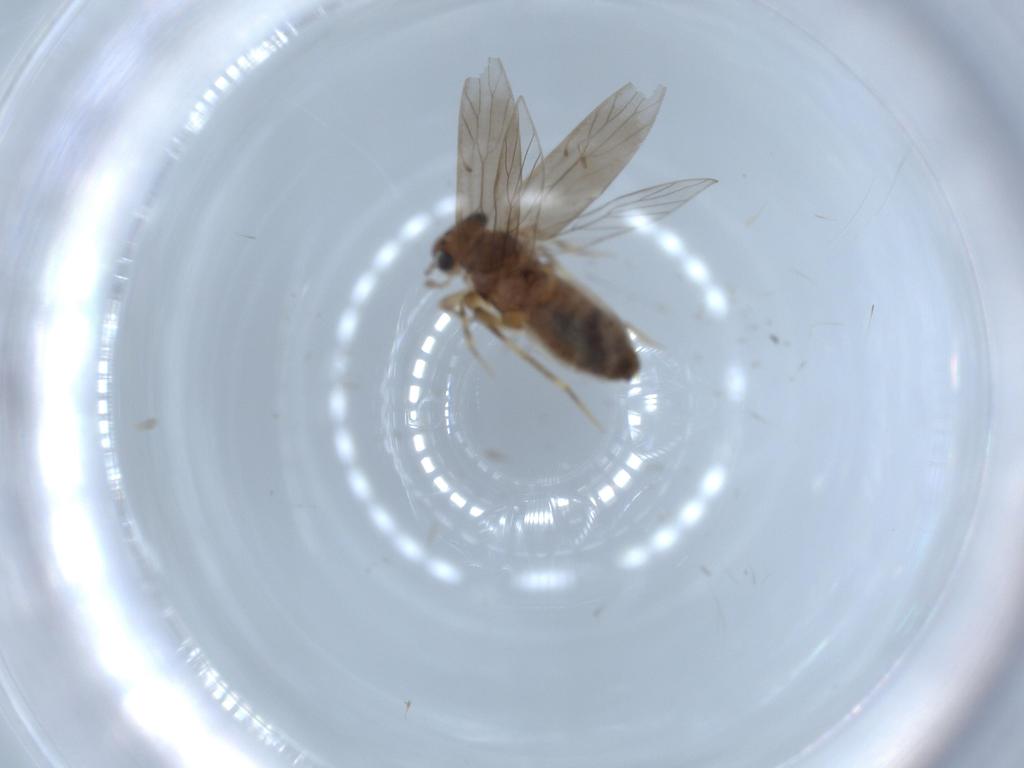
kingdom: Animalia
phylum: Arthropoda
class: Insecta
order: Psocodea
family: Lepidopsocidae
